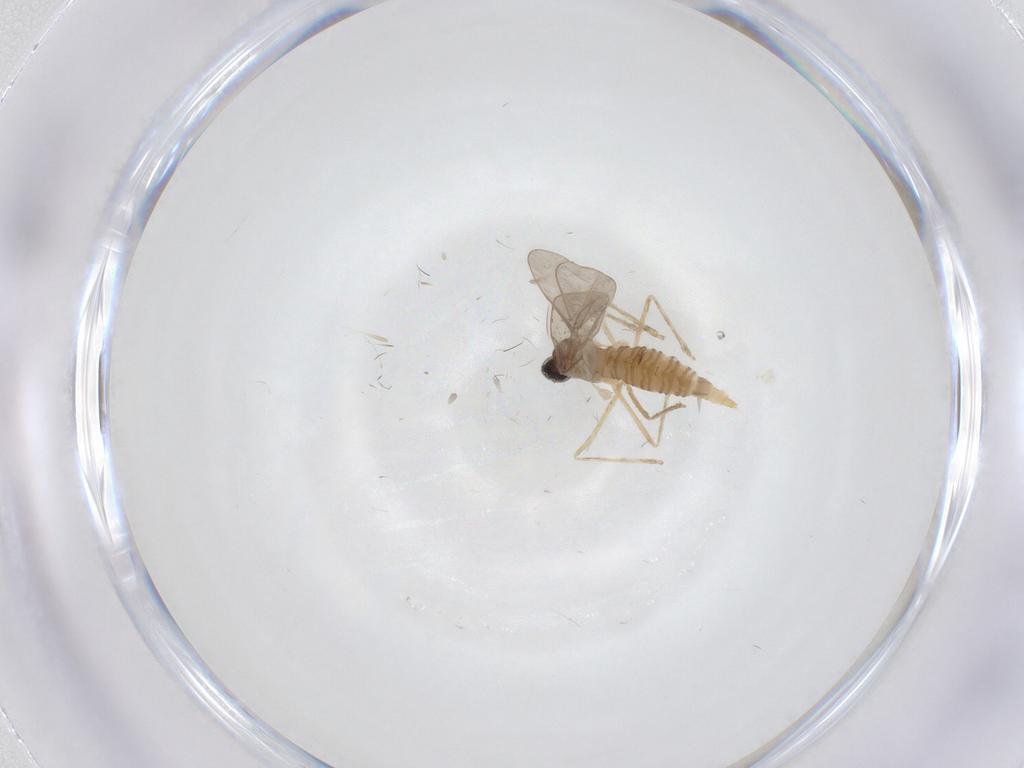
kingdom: Animalia
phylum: Arthropoda
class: Insecta
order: Diptera
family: Cecidomyiidae
